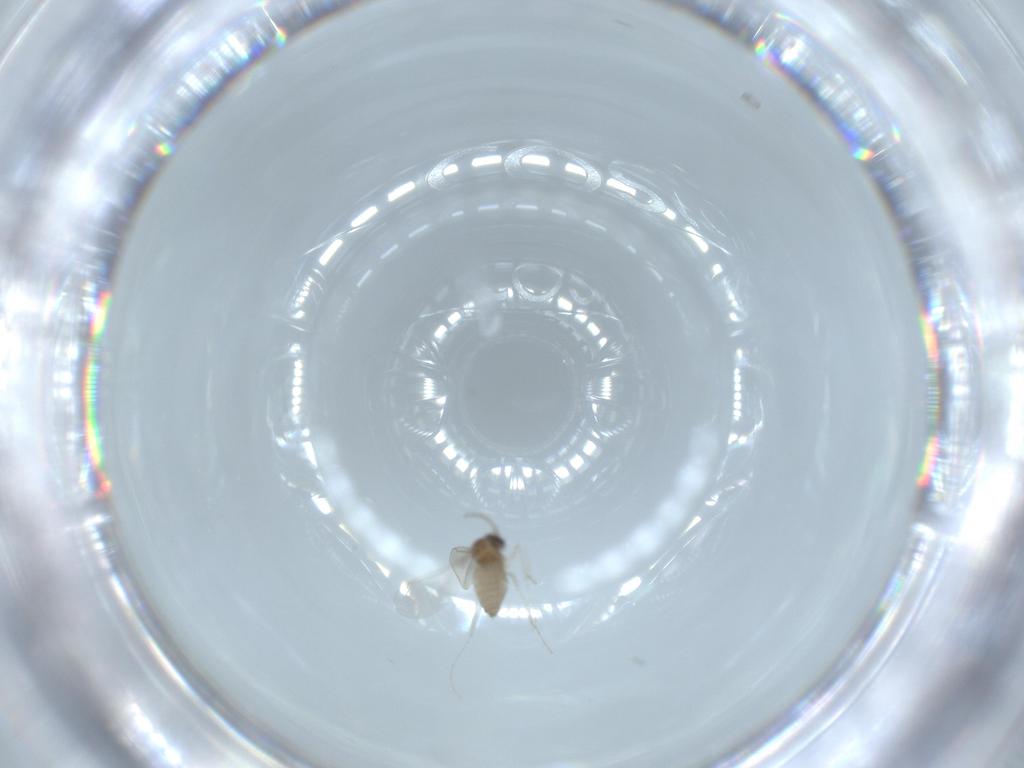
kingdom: Animalia
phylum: Arthropoda
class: Insecta
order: Diptera
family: Cecidomyiidae
